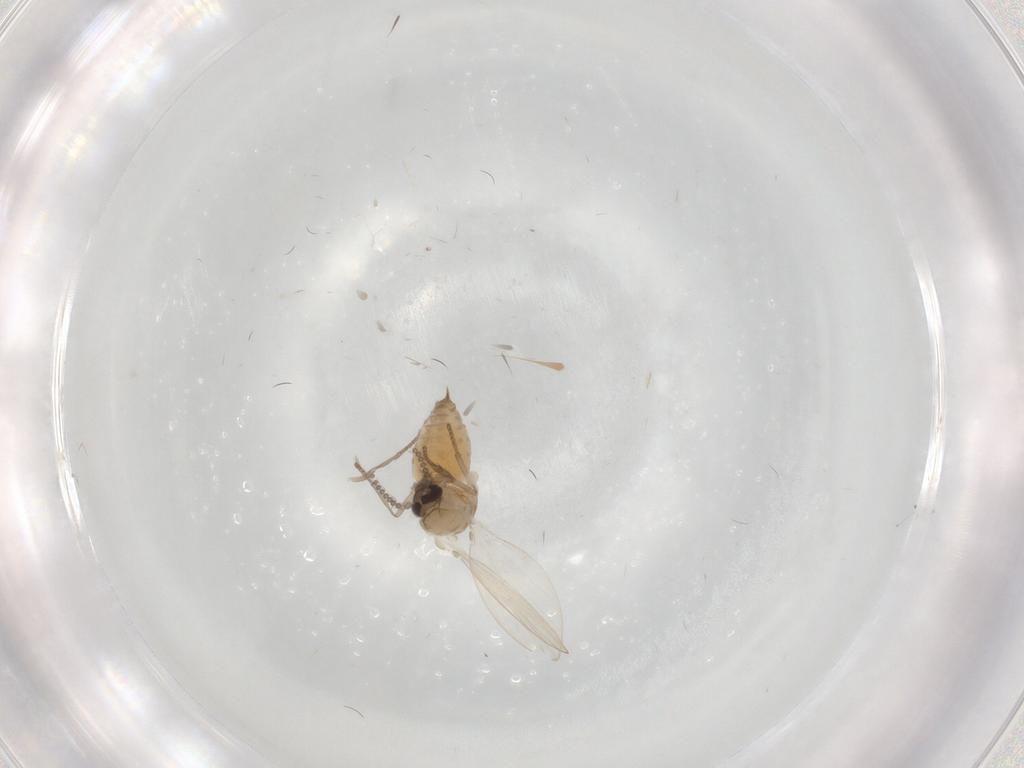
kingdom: Animalia
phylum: Arthropoda
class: Insecta
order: Diptera
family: Psychodidae
